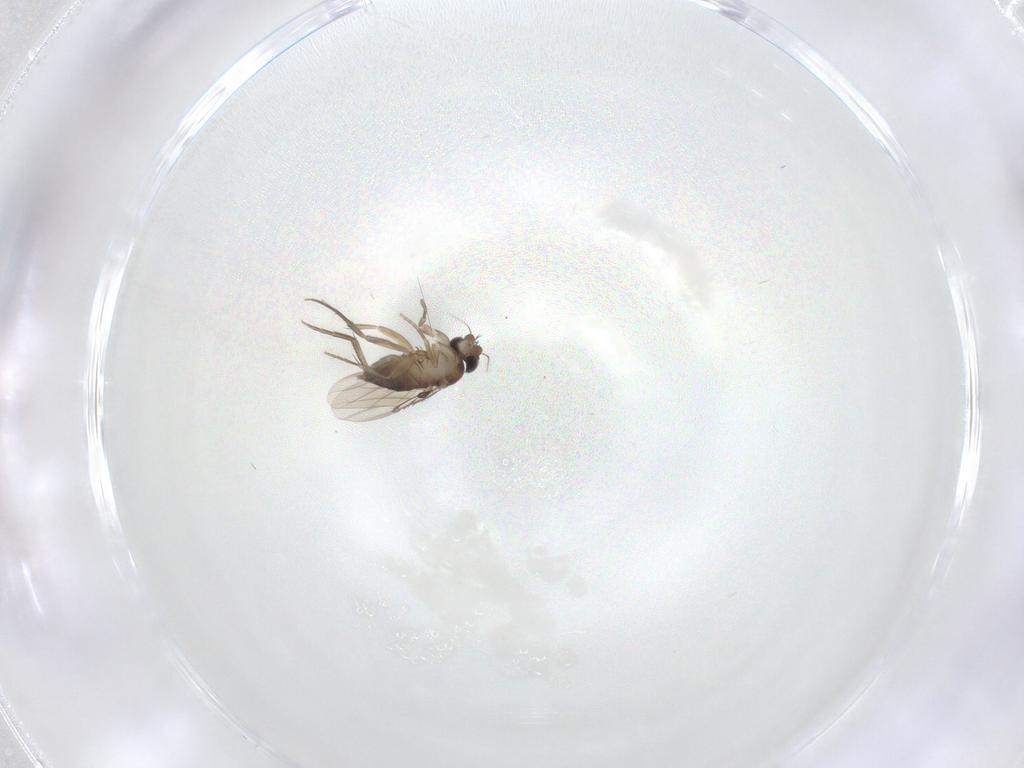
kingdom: Animalia
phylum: Arthropoda
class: Insecta
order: Diptera
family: Phoridae
